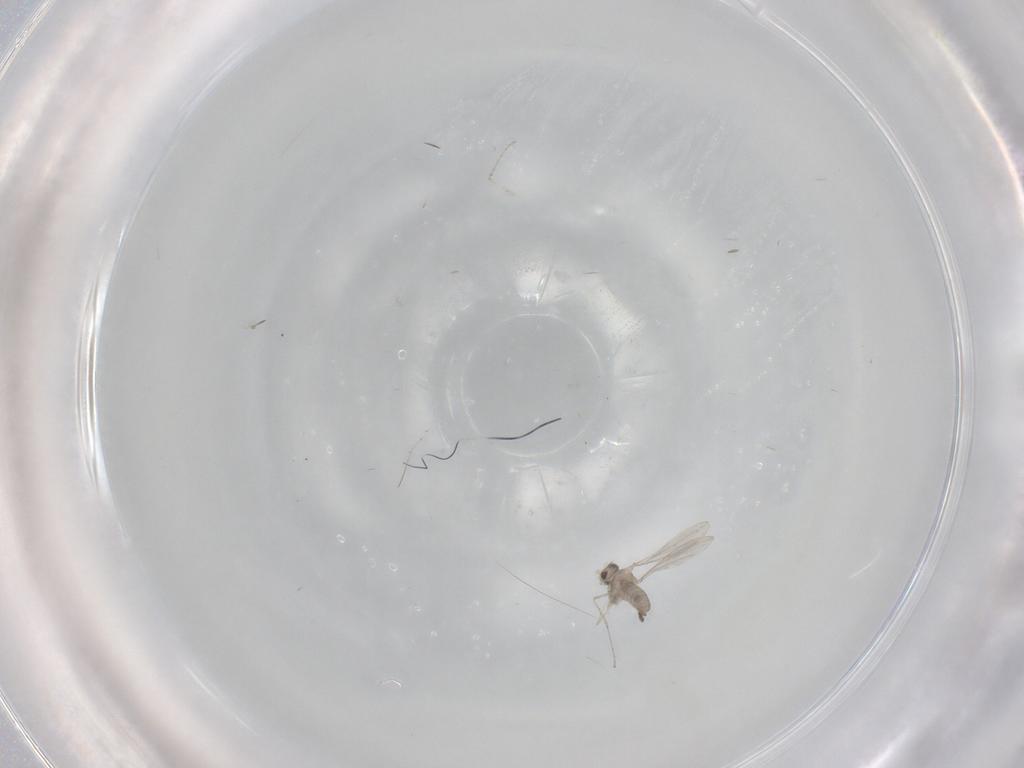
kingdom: Animalia
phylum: Arthropoda
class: Insecta
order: Diptera
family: Cecidomyiidae
